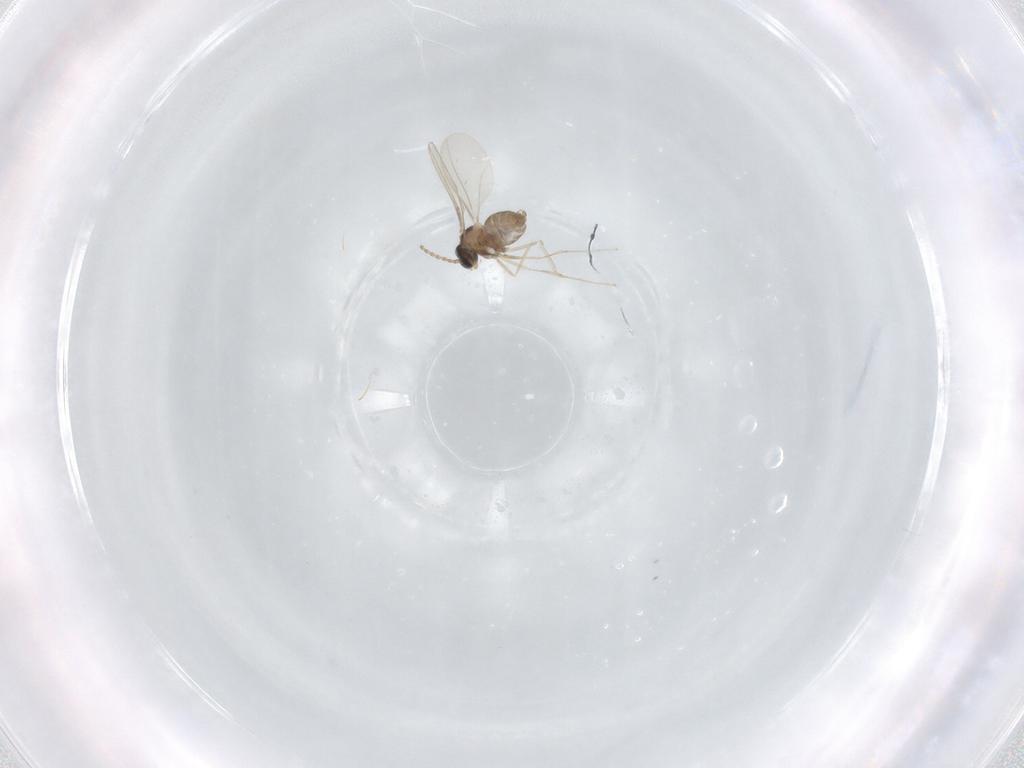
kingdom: Animalia
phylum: Arthropoda
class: Insecta
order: Diptera
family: Cecidomyiidae
